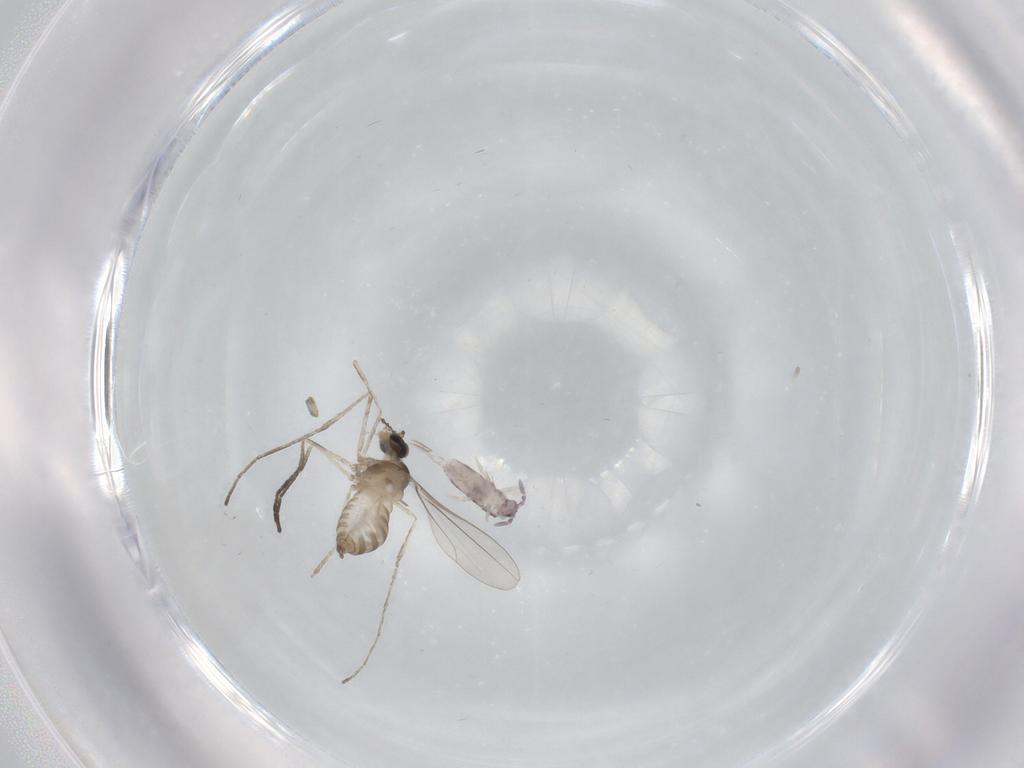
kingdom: Animalia
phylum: Arthropoda
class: Insecta
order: Diptera
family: Cecidomyiidae
